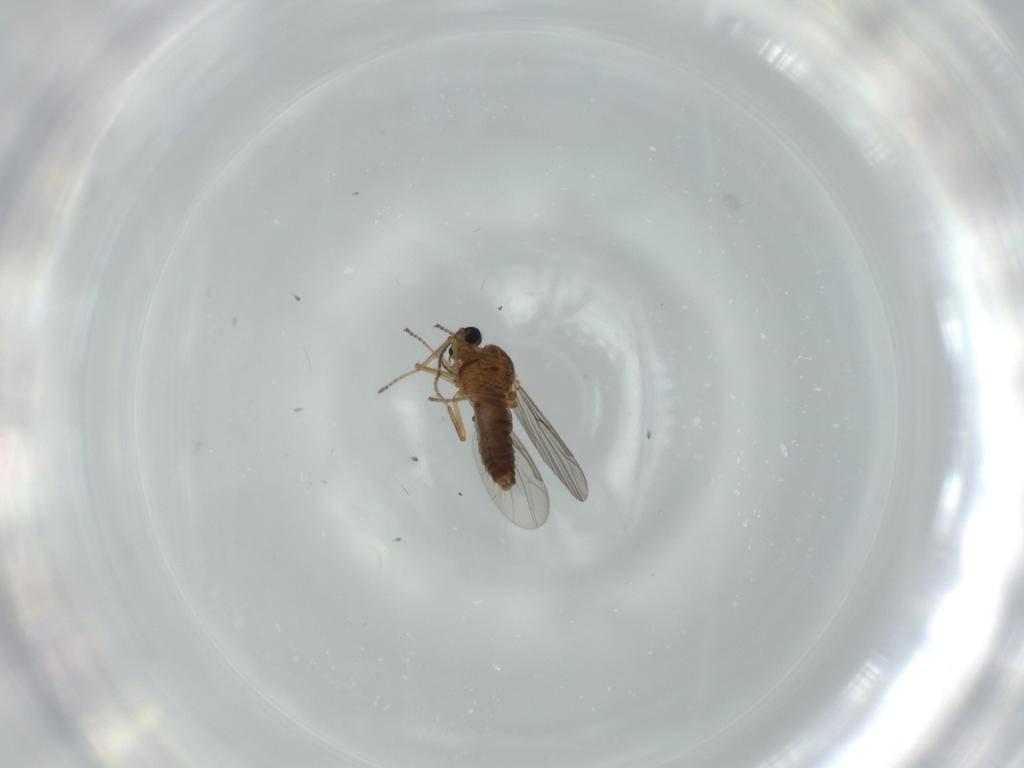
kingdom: Animalia
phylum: Arthropoda
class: Insecta
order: Diptera
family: Ceratopogonidae
